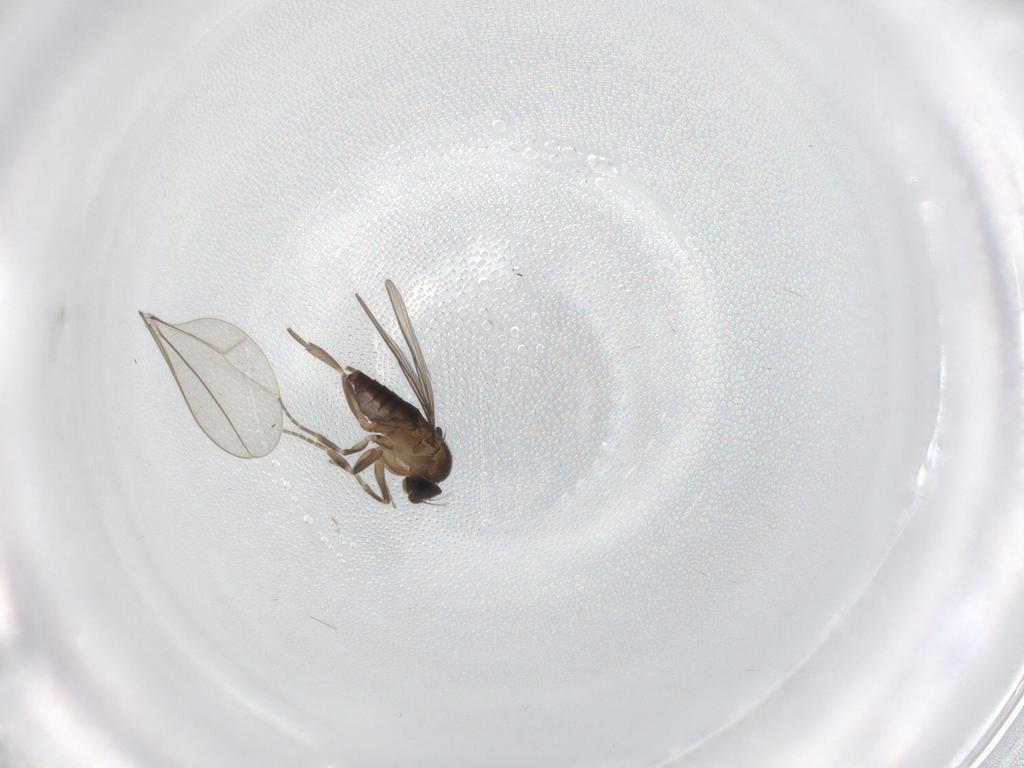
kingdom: Animalia
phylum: Arthropoda
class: Insecta
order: Diptera
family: Phoridae
